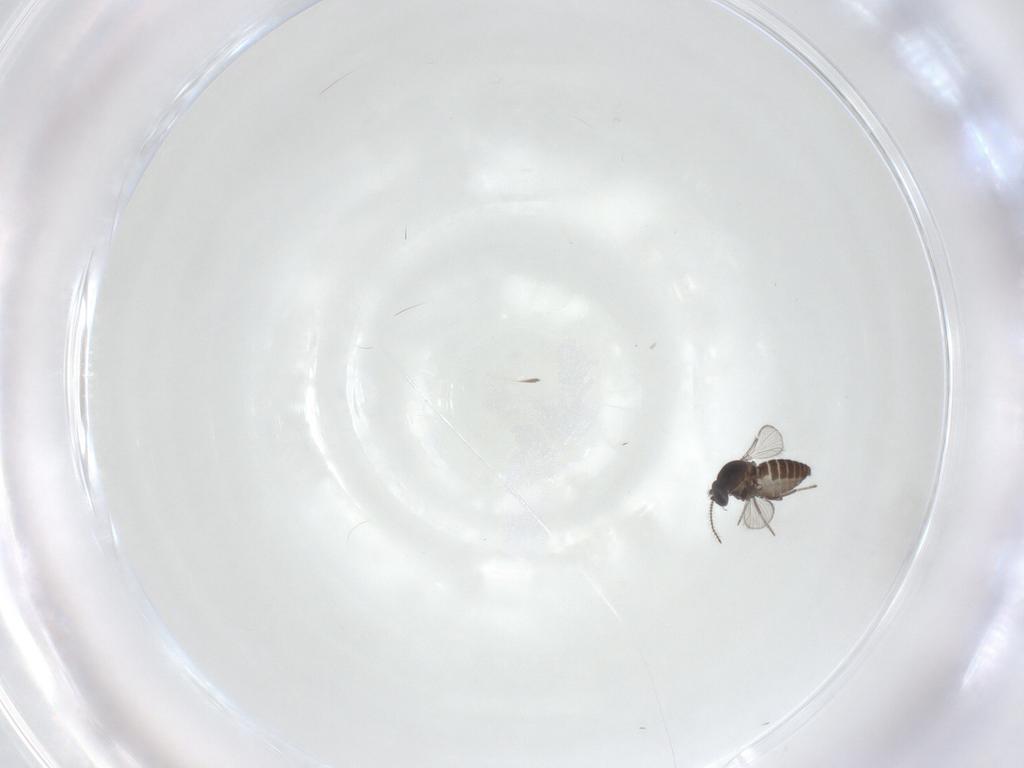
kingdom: Animalia
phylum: Arthropoda
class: Insecta
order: Diptera
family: Ceratopogonidae
